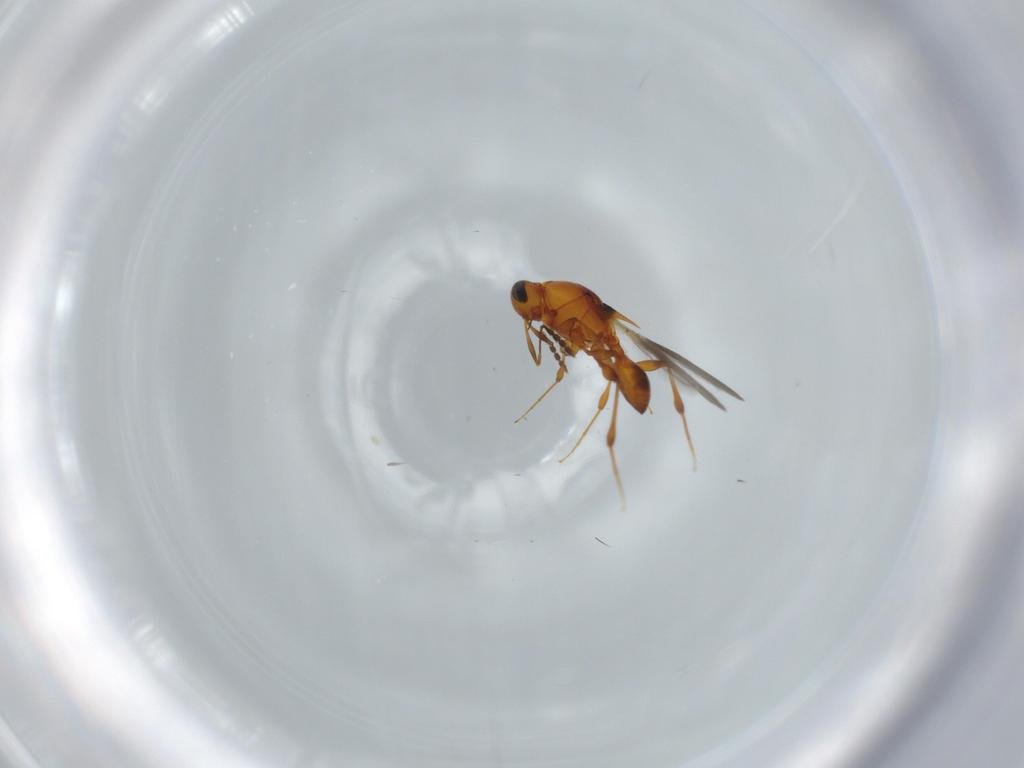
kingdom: Animalia
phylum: Arthropoda
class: Insecta
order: Hymenoptera
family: Platygastridae
